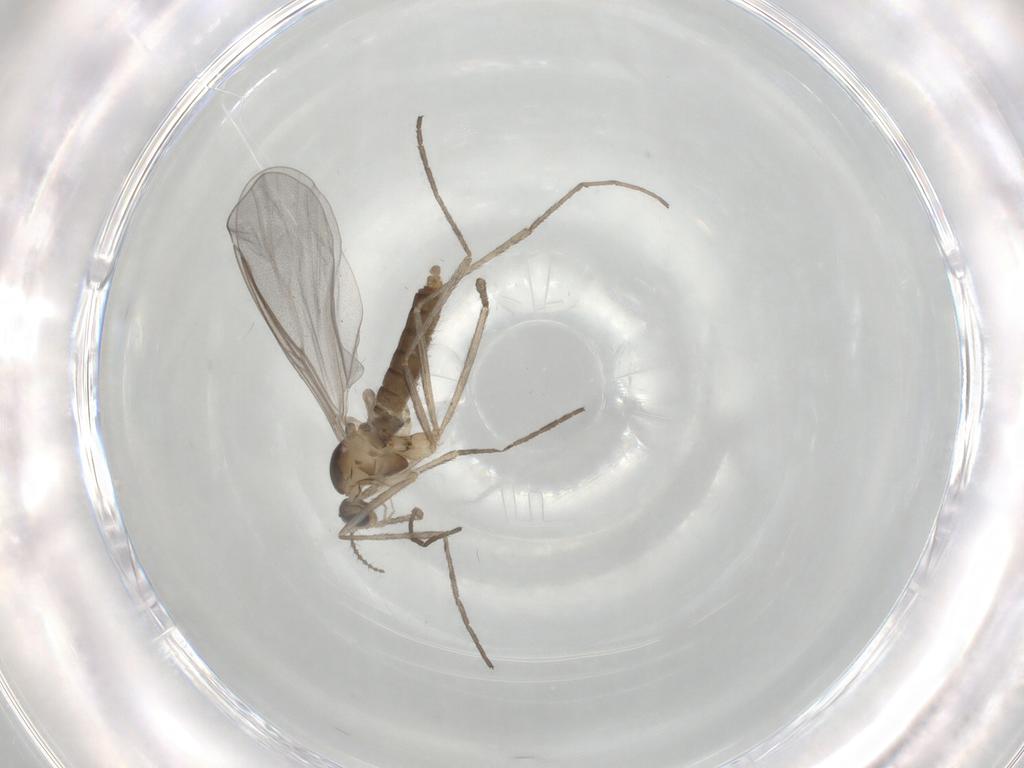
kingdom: Animalia
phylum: Arthropoda
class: Insecta
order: Diptera
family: Cecidomyiidae
